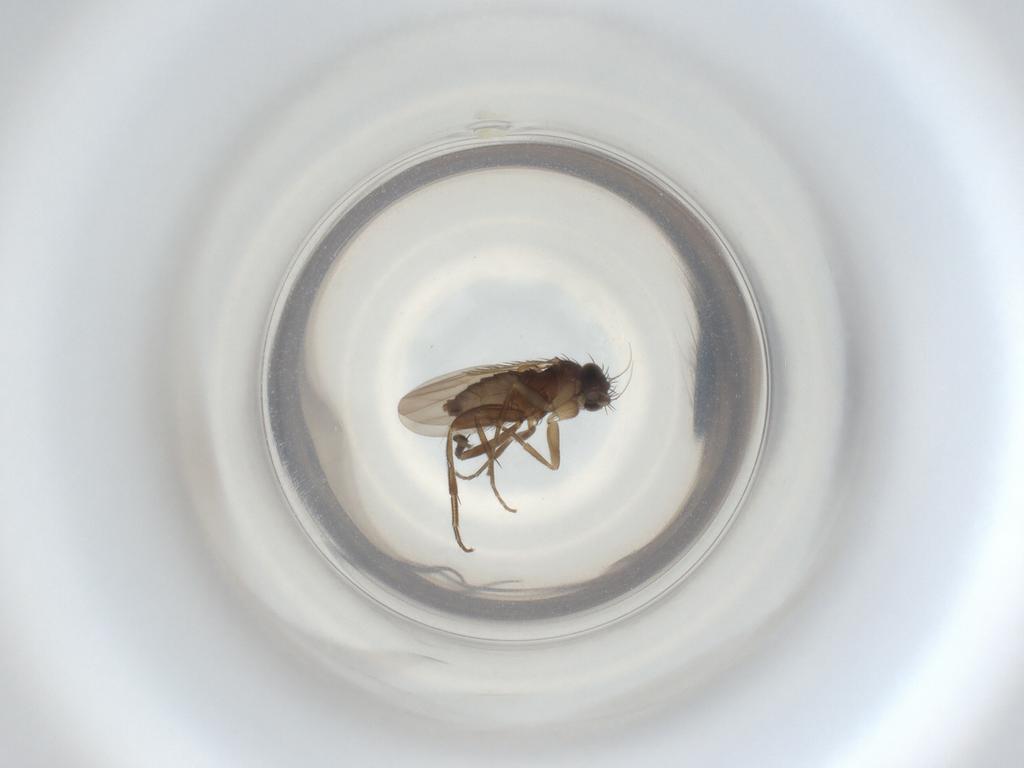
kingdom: Animalia
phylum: Arthropoda
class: Insecta
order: Diptera
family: Phoridae
